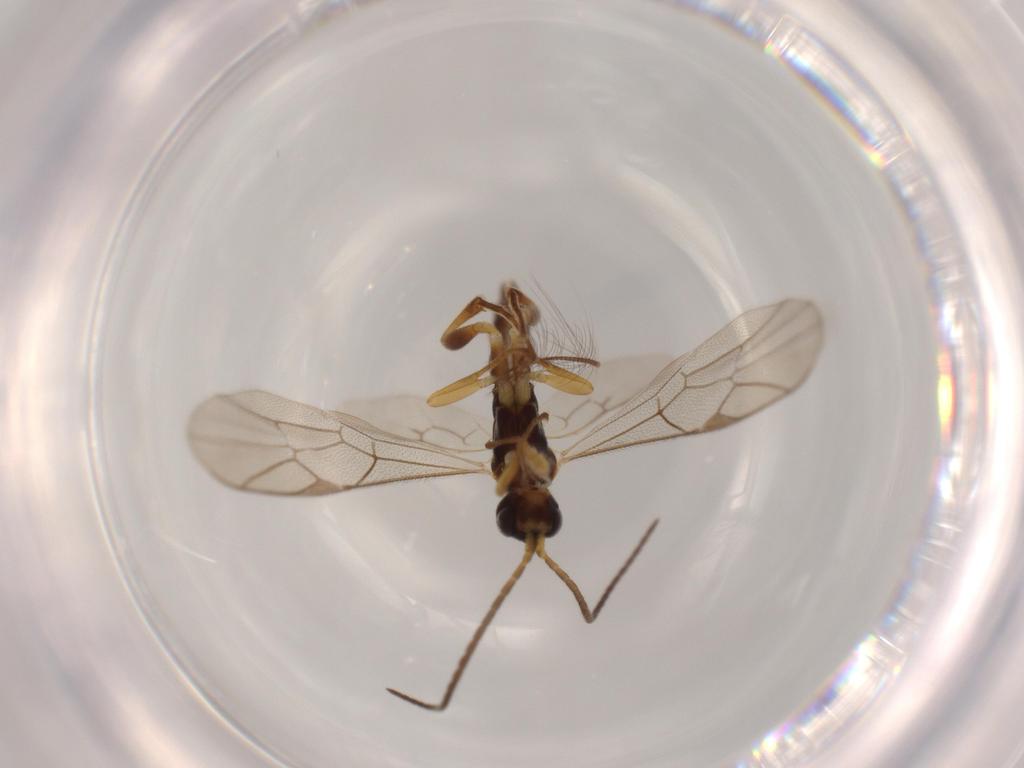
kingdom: Animalia
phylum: Arthropoda
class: Insecta
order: Hymenoptera
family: Ichneumonidae
